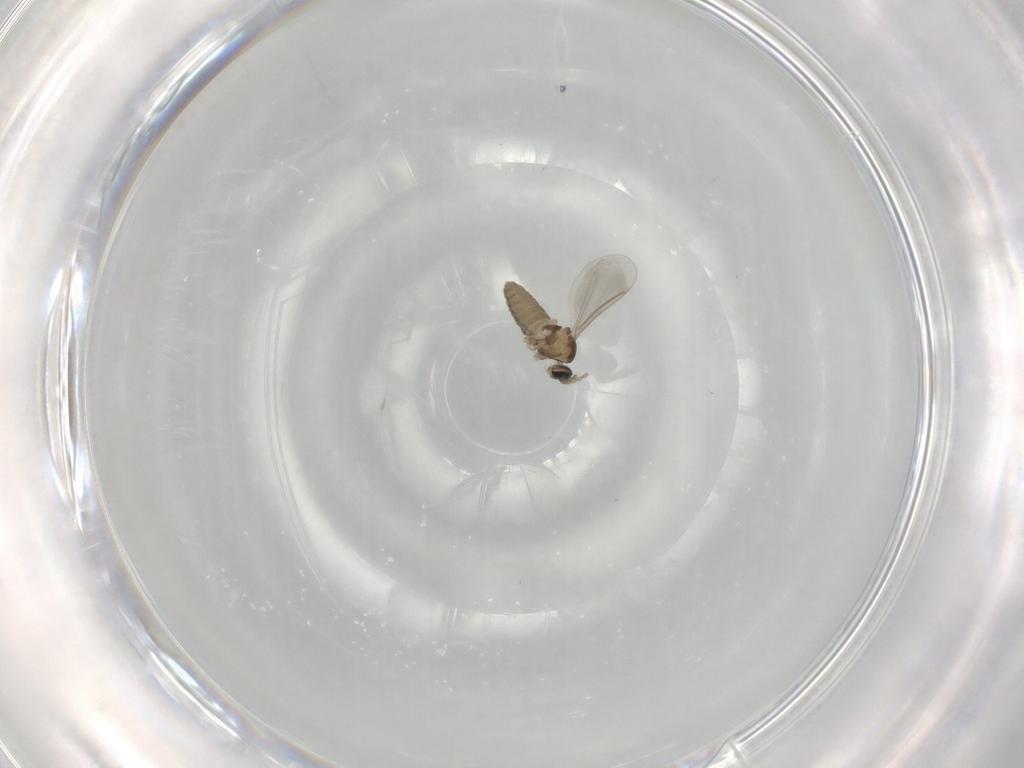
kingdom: Animalia
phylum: Arthropoda
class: Insecta
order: Diptera
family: Cecidomyiidae
